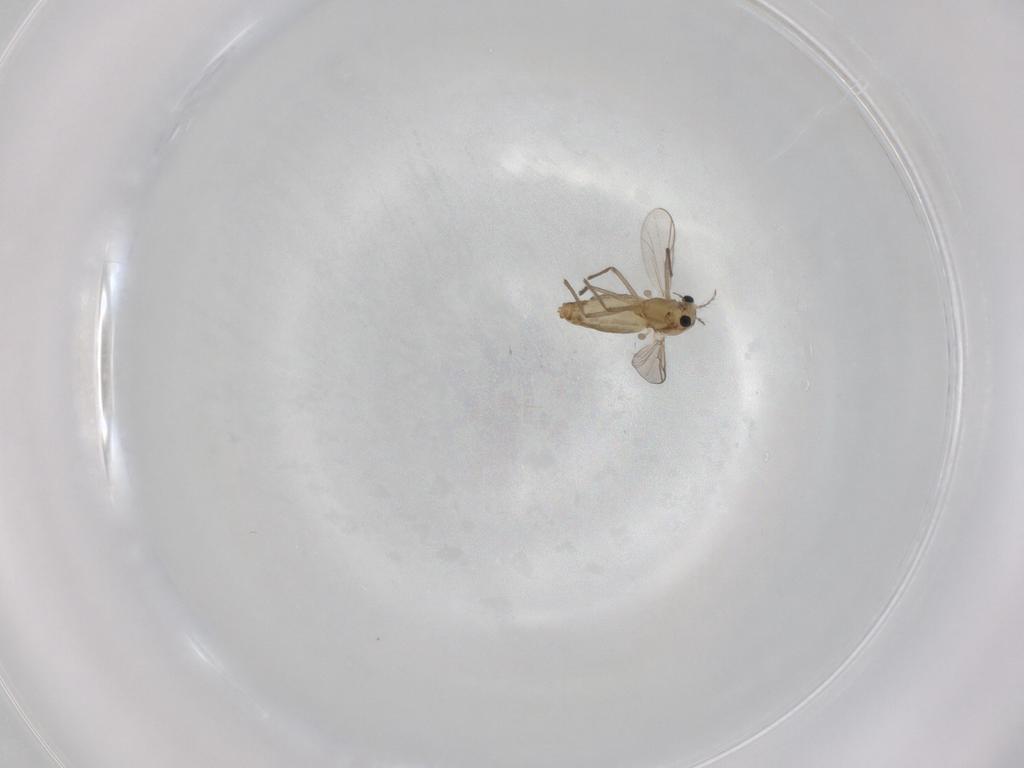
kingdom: Animalia
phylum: Arthropoda
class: Insecta
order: Diptera
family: Chironomidae
